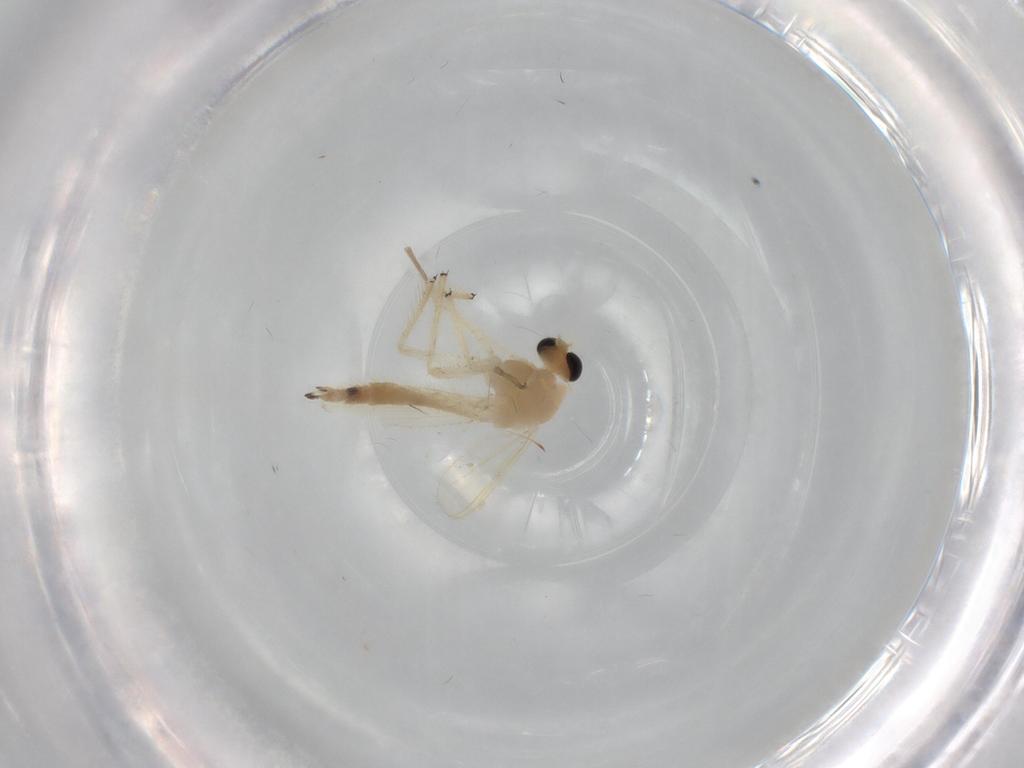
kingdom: Animalia
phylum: Arthropoda
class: Insecta
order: Diptera
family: Chironomidae
